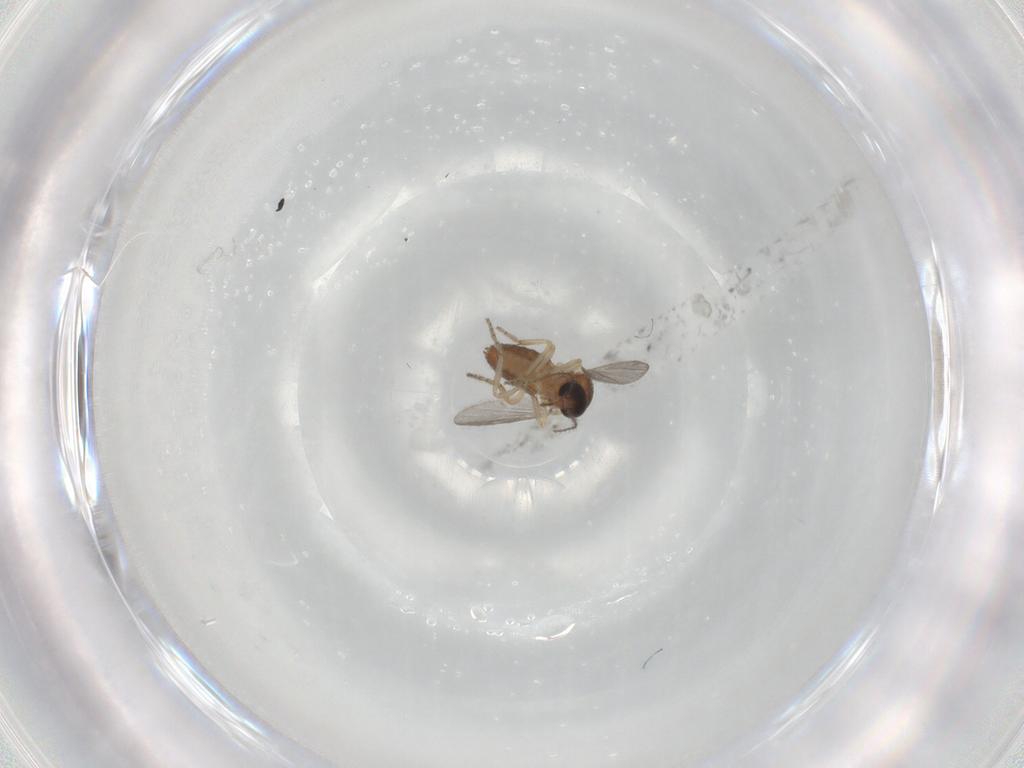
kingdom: Animalia
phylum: Arthropoda
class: Insecta
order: Diptera
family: Ceratopogonidae
